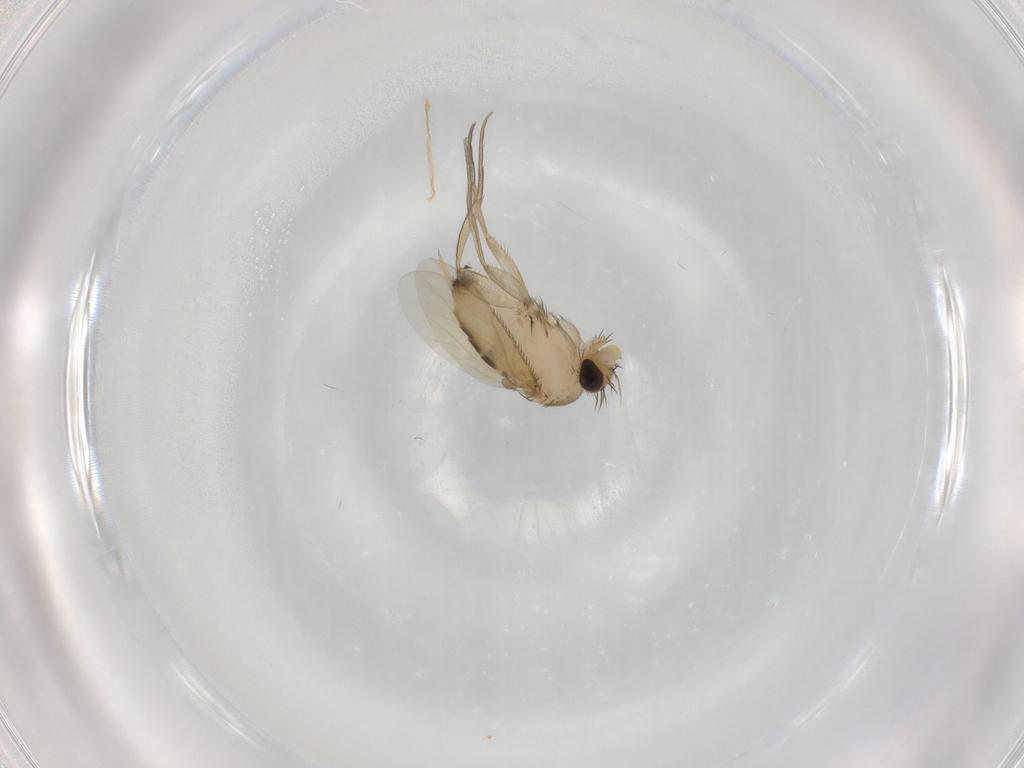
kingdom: Animalia
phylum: Arthropoda
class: Insecta
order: Diptera
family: Phoridae
